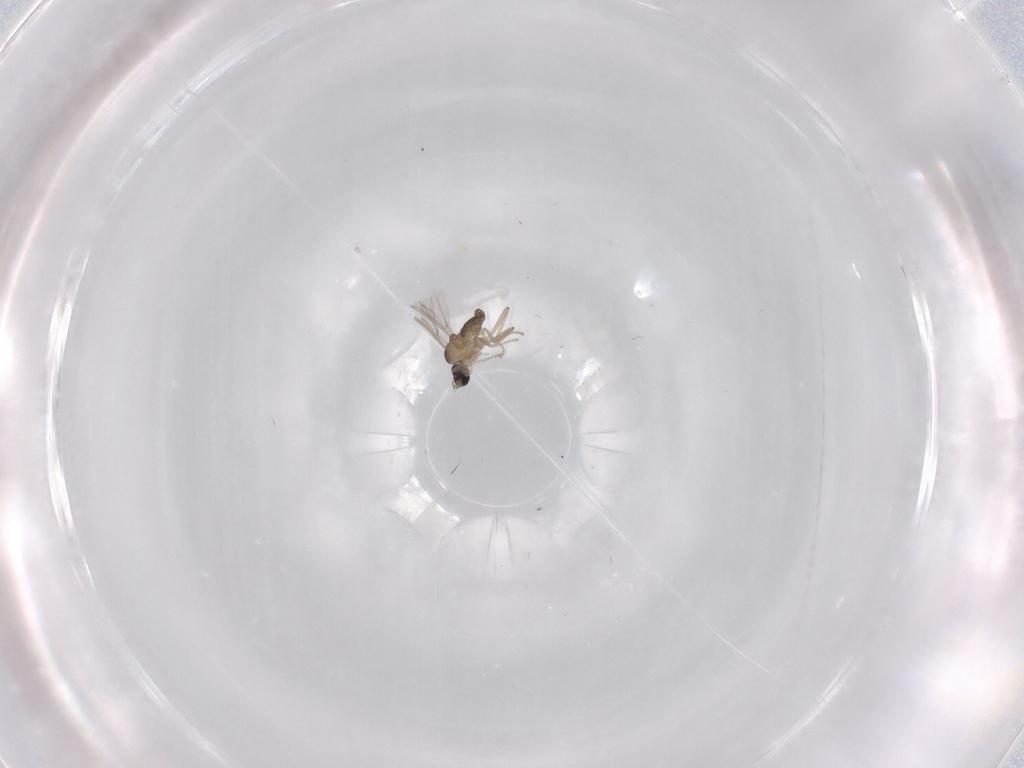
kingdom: Animalia
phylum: Arthropoda
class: Insecta
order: Diptera
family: Cecidomyiidae
